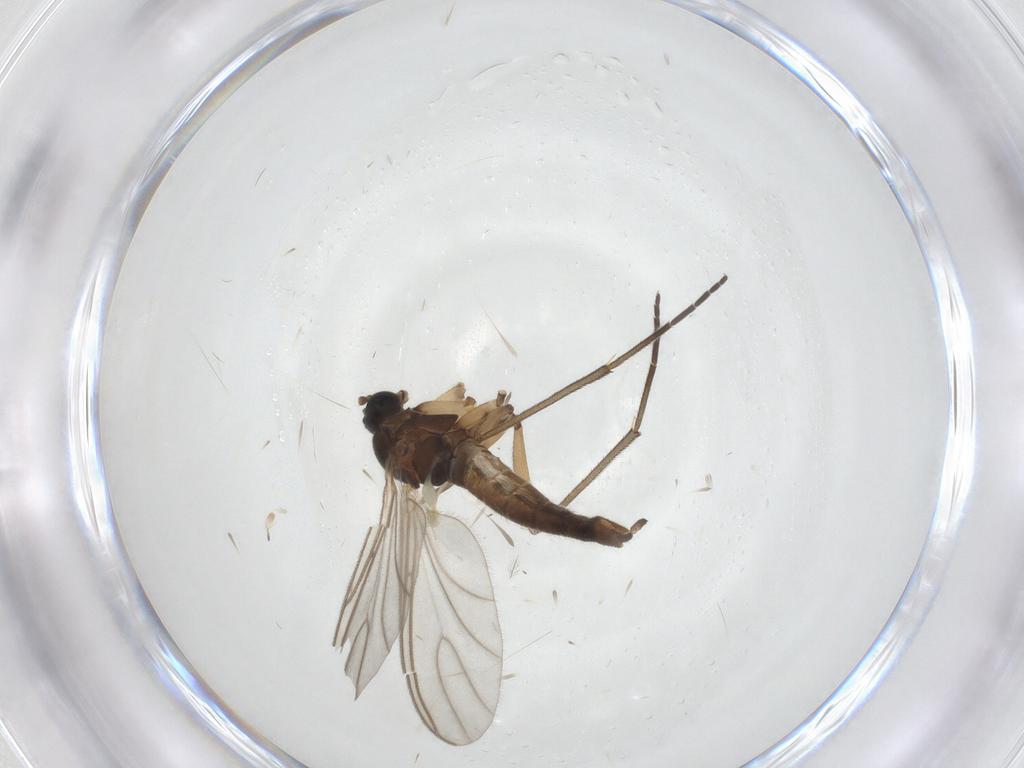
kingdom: Animalia
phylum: Arthropoda
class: Insecta
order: Diptera
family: Sciaridae
